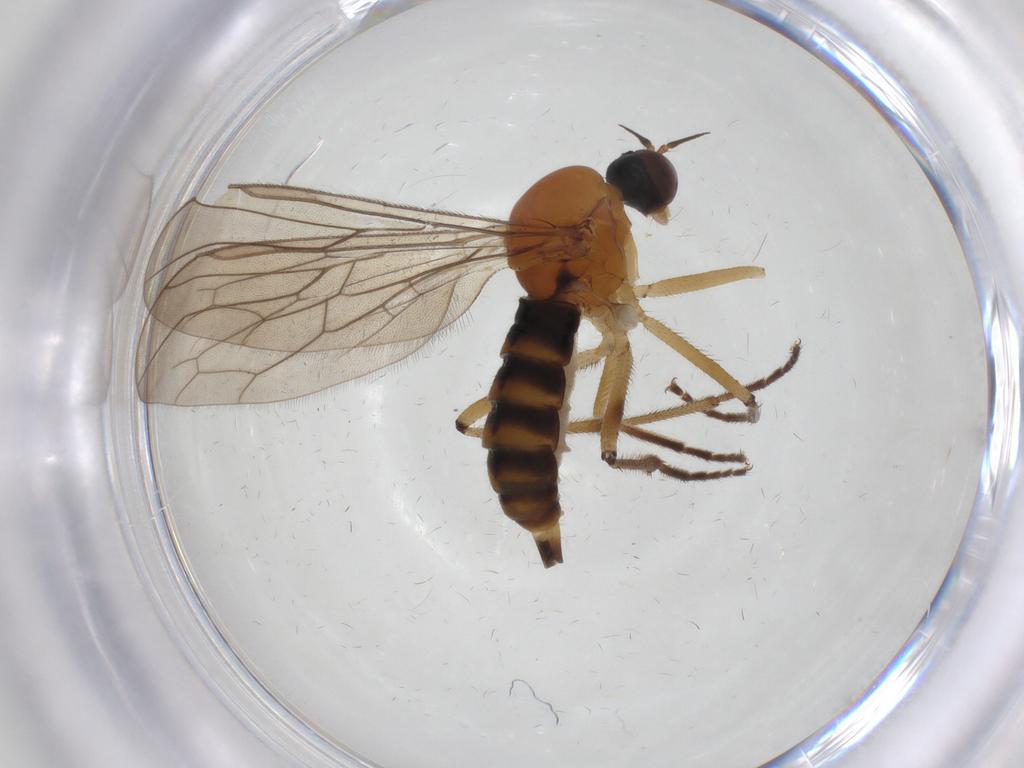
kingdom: Animalia
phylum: Arthropoda
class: Insecta
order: Diptera
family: Hybotidae
